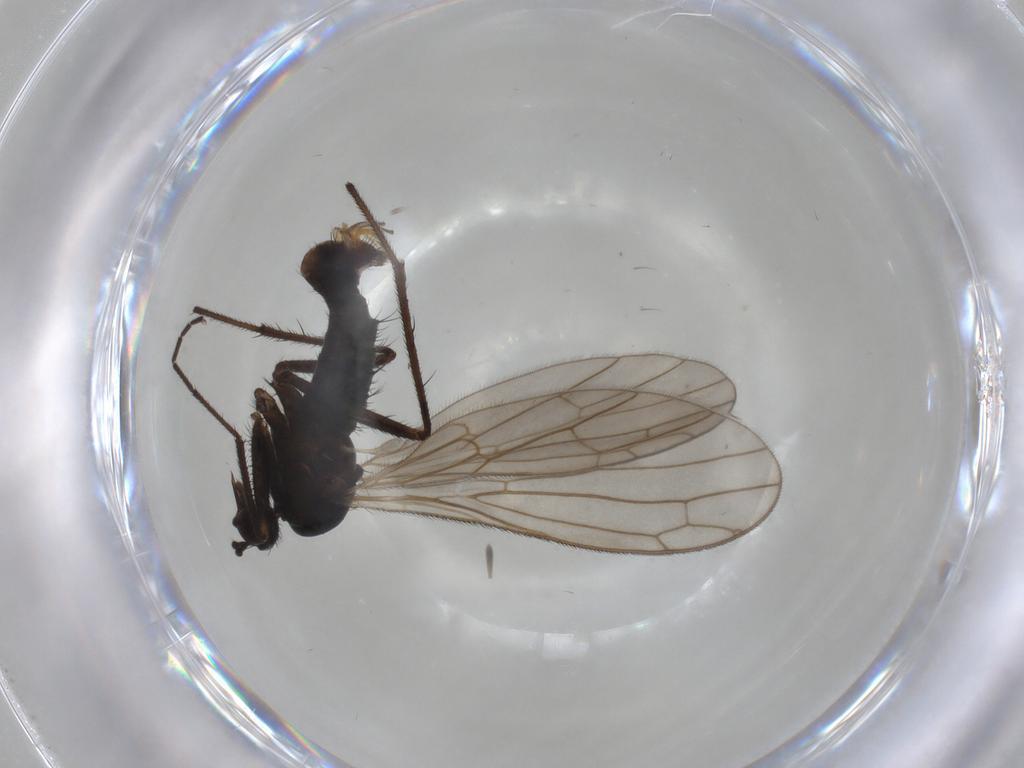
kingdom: Animalia
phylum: Arthropoda
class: Insecta
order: Diptera
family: Empididae
